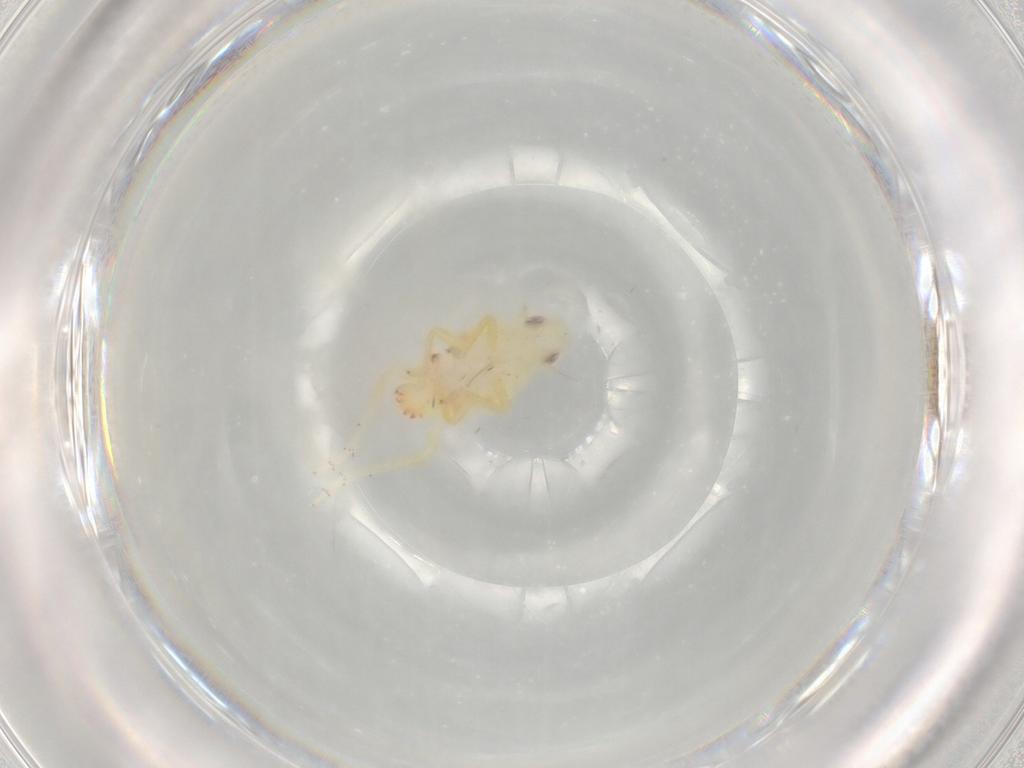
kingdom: Animalia
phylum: Arthropoda
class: Insecta
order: Hemiptera
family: Tropiduchidae
